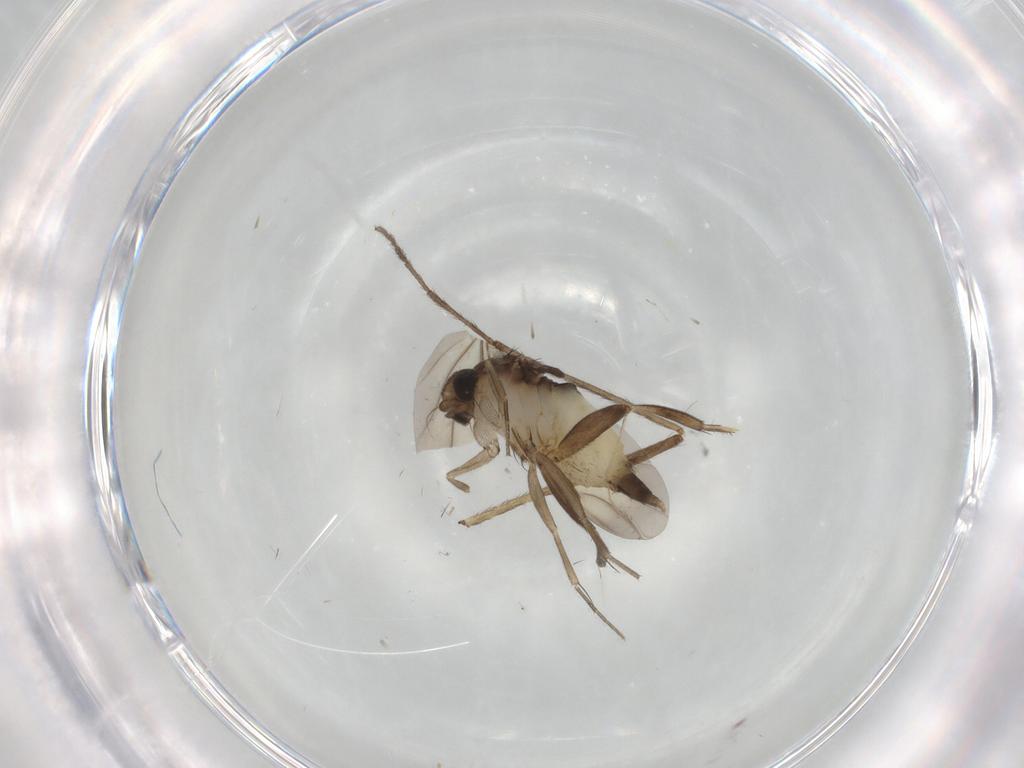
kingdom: Animalia
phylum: Arthropoda
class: Insecta
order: Diptera
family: Phoridae
